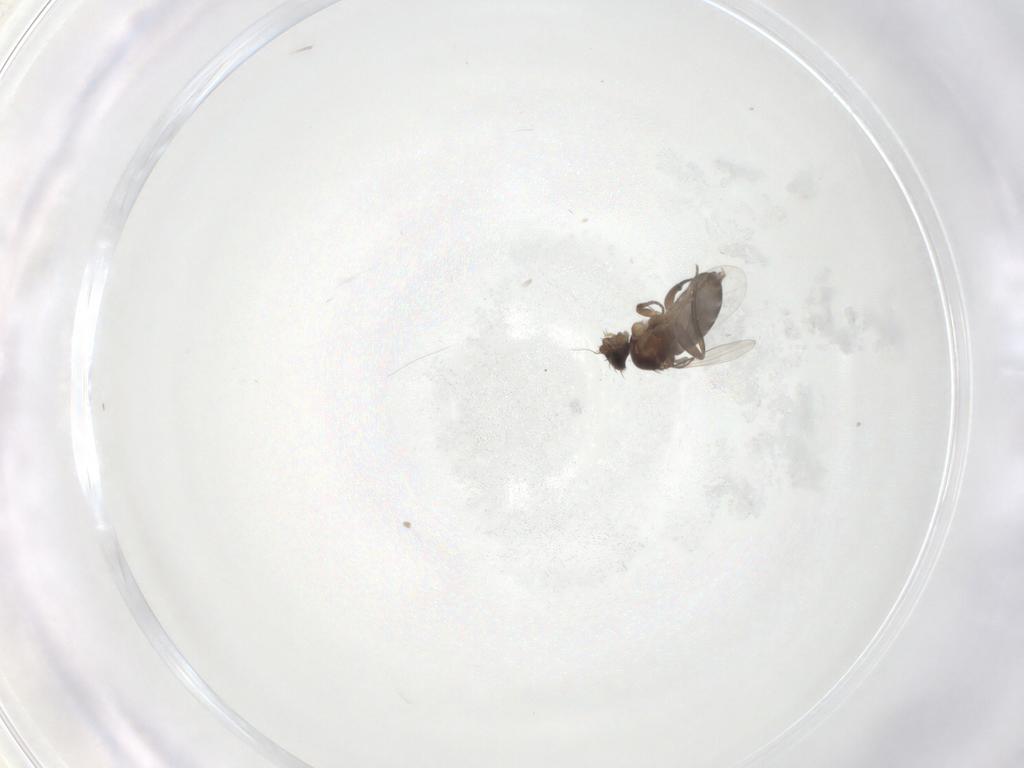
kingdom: Animalia
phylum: Arthropoda
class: Insecta
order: Diptera
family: Phoridae
